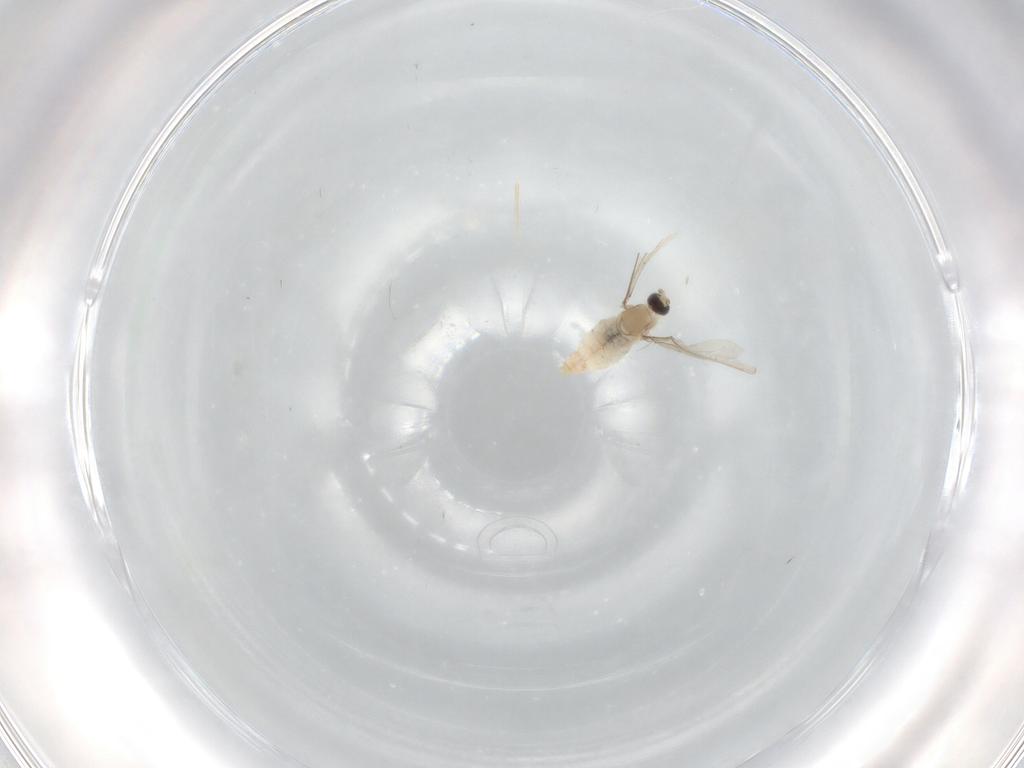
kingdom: Animalia
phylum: Arthropoda
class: Insecta
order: Diptera
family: Cecidomyiidae
